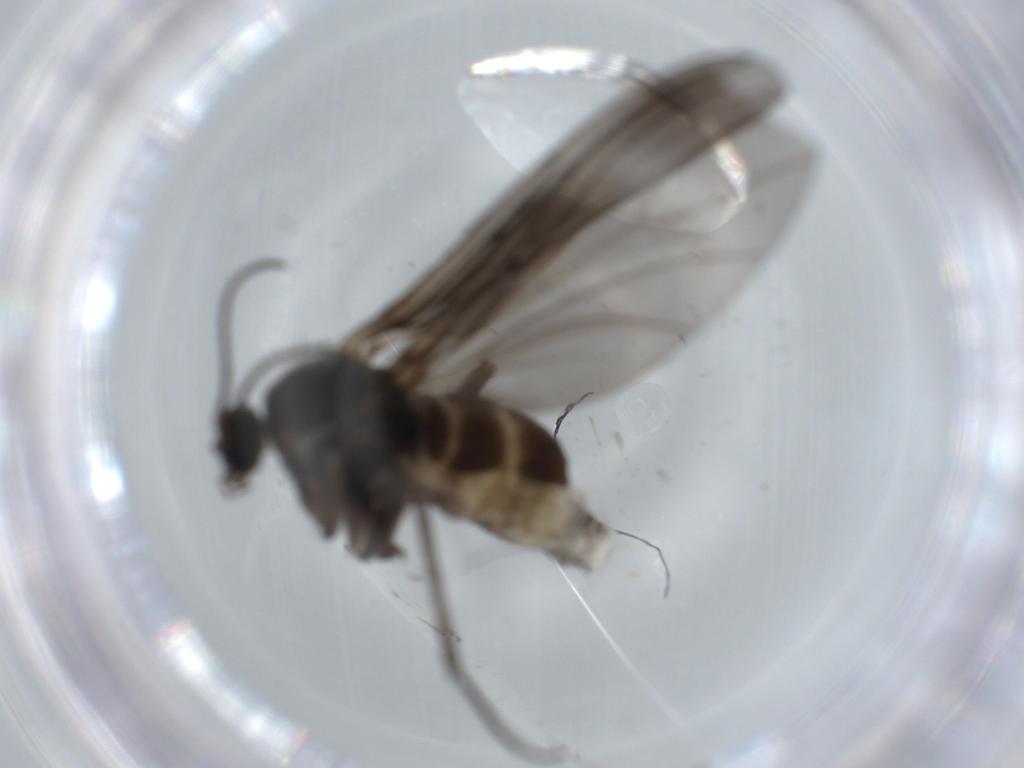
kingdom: Animalia
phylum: Arthropoda
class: Insecta
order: Diptera
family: Sciaridae
